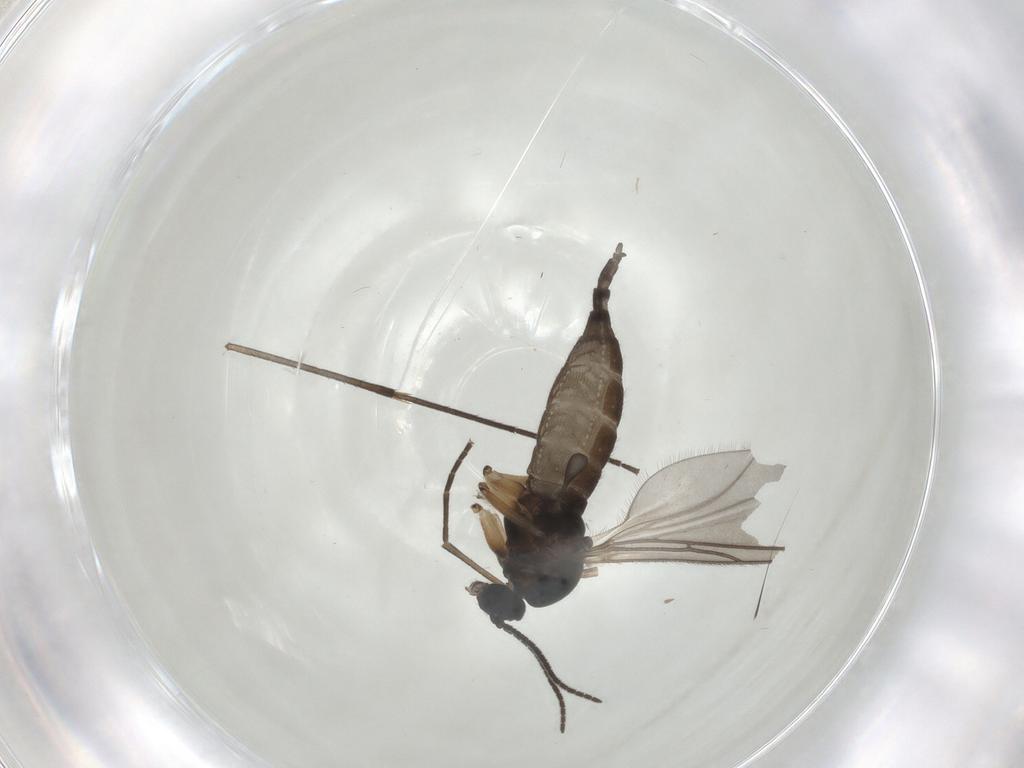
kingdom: Animalia
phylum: Arthropoda
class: Insecta
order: Diptera
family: Sciaridae
